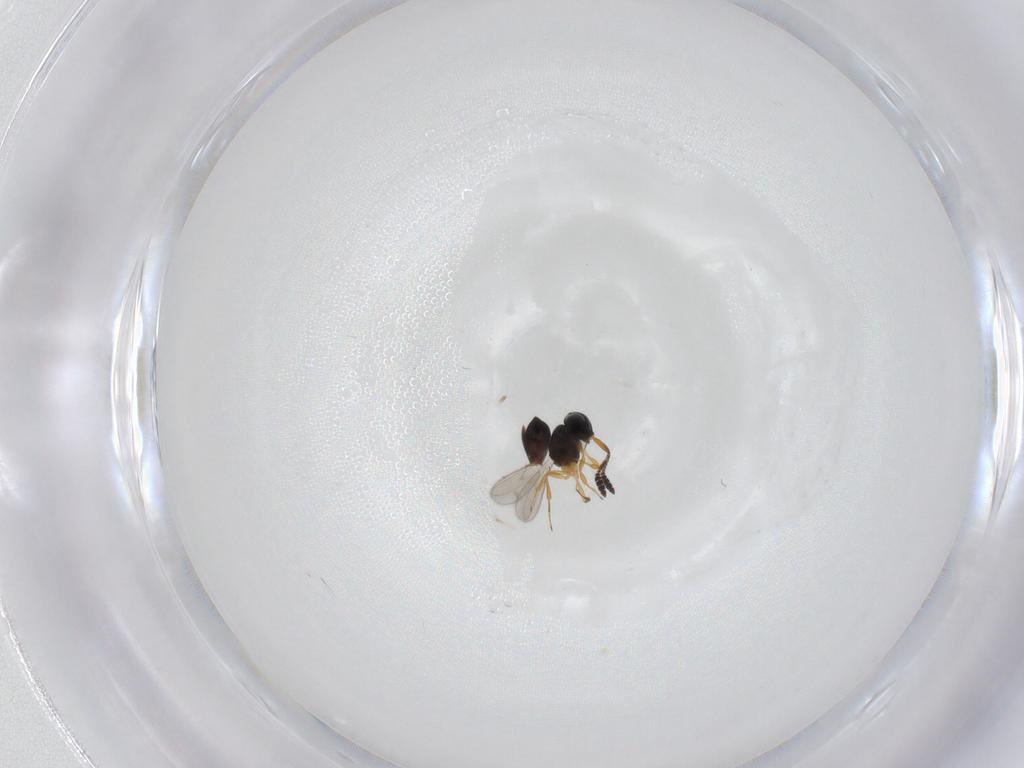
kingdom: Animalia
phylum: Arthropoda
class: Insecta
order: Hymenoptera
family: Scelionidae
